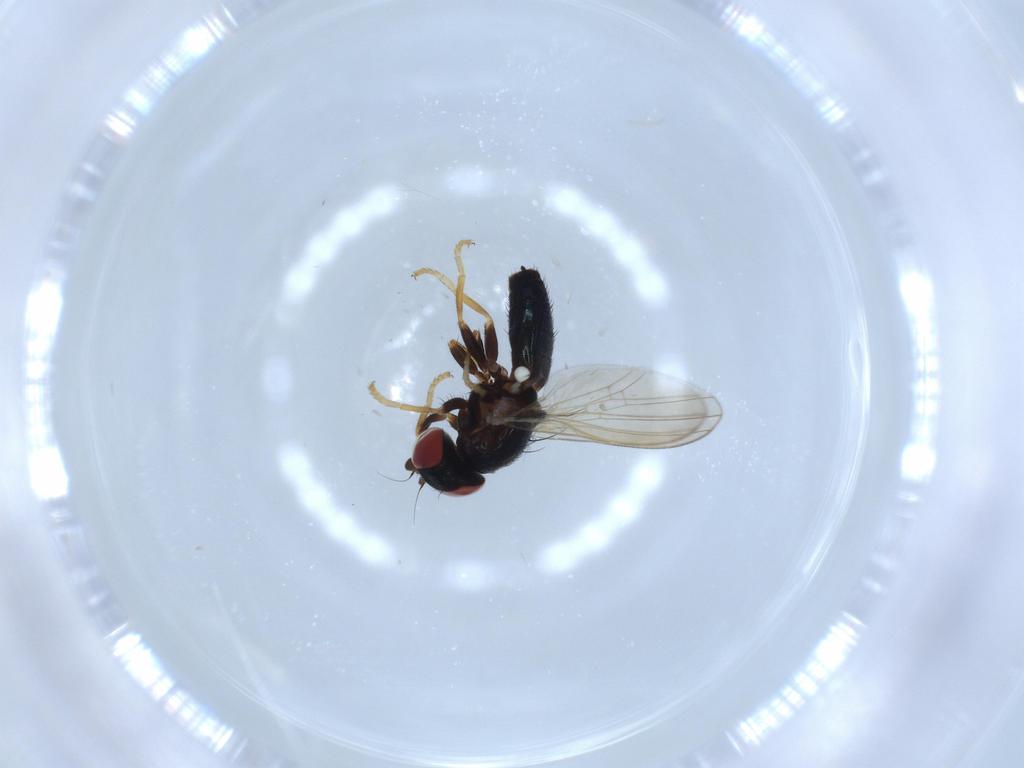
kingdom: Animalia
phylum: Arthropoda
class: Insecta
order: Diptera
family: Chamaemyiidae
